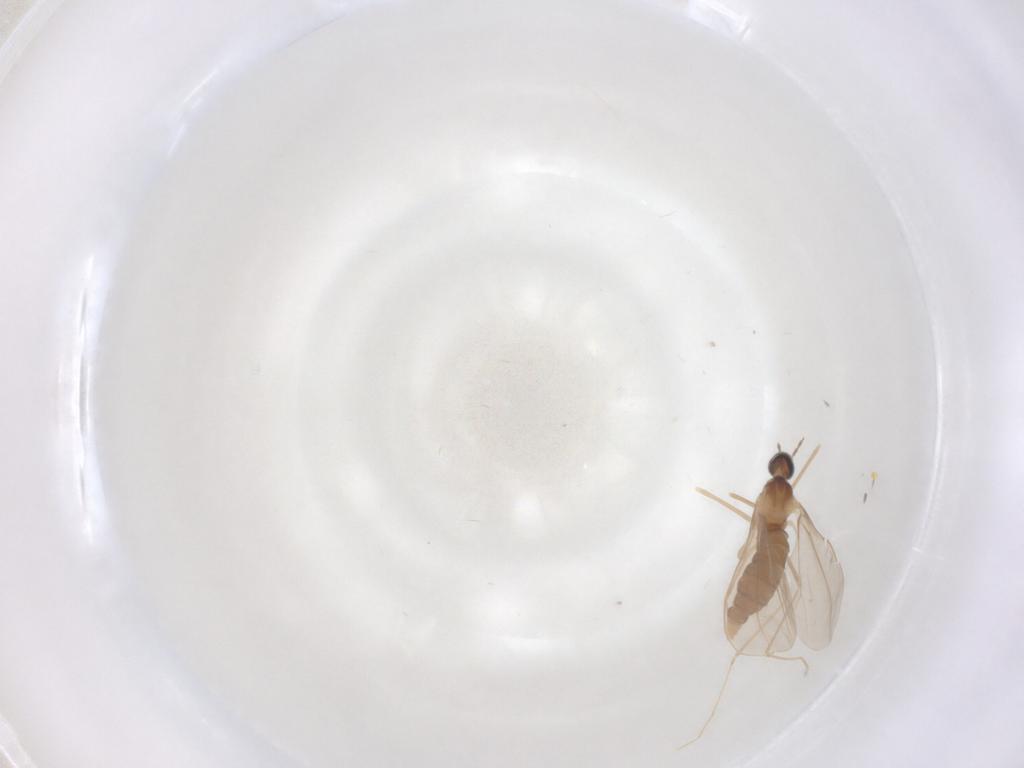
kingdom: Animalia
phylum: Arthropoda
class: Insecta
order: Diptera
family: Cecidomyiidae
